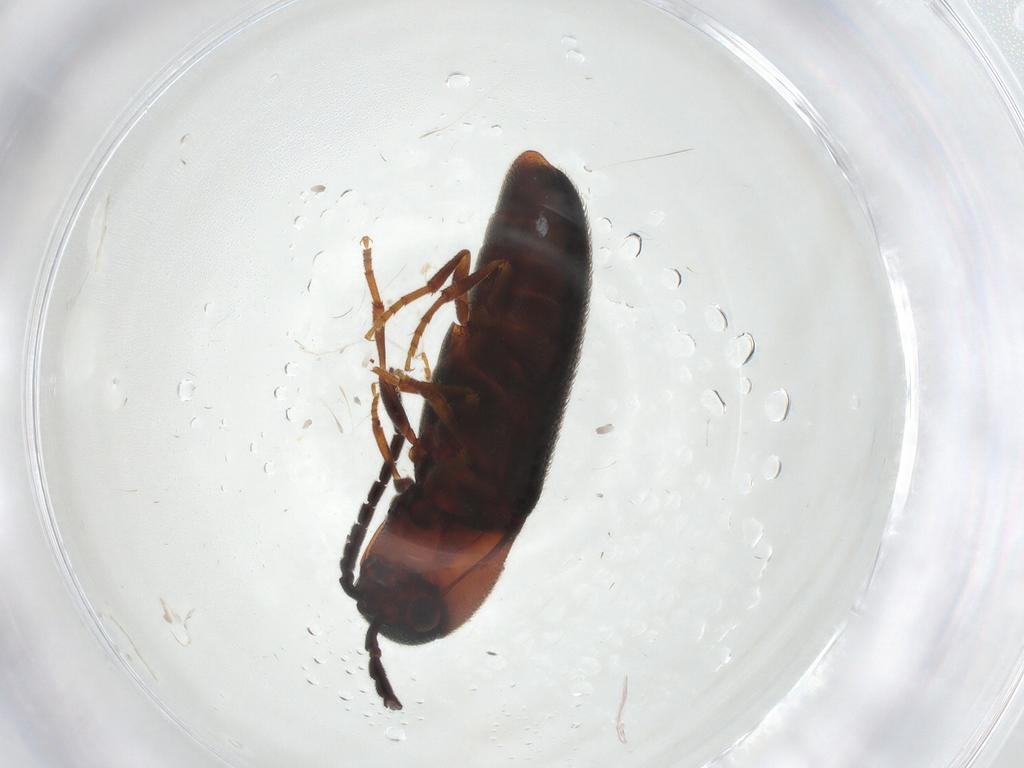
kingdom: Animalia
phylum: Arthropoda
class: Insecta
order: Coleoptera
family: Eucnemidae
